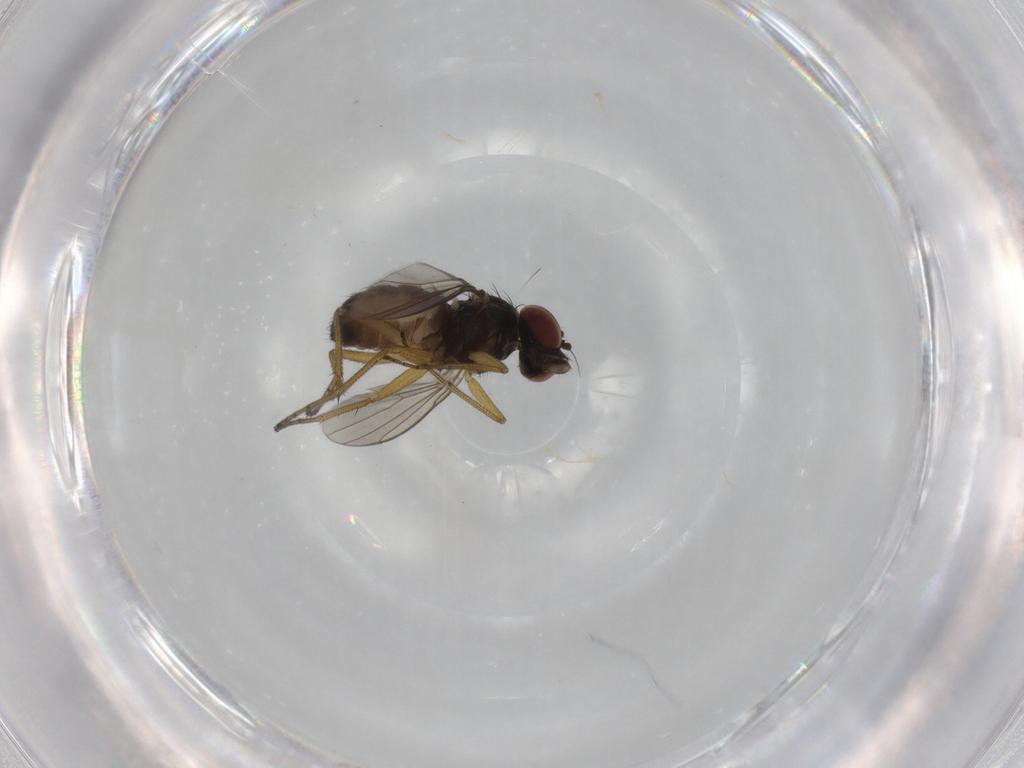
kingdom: Animalia
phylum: Arthropoda
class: Insecta
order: Diptera
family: Dolichopodidae
